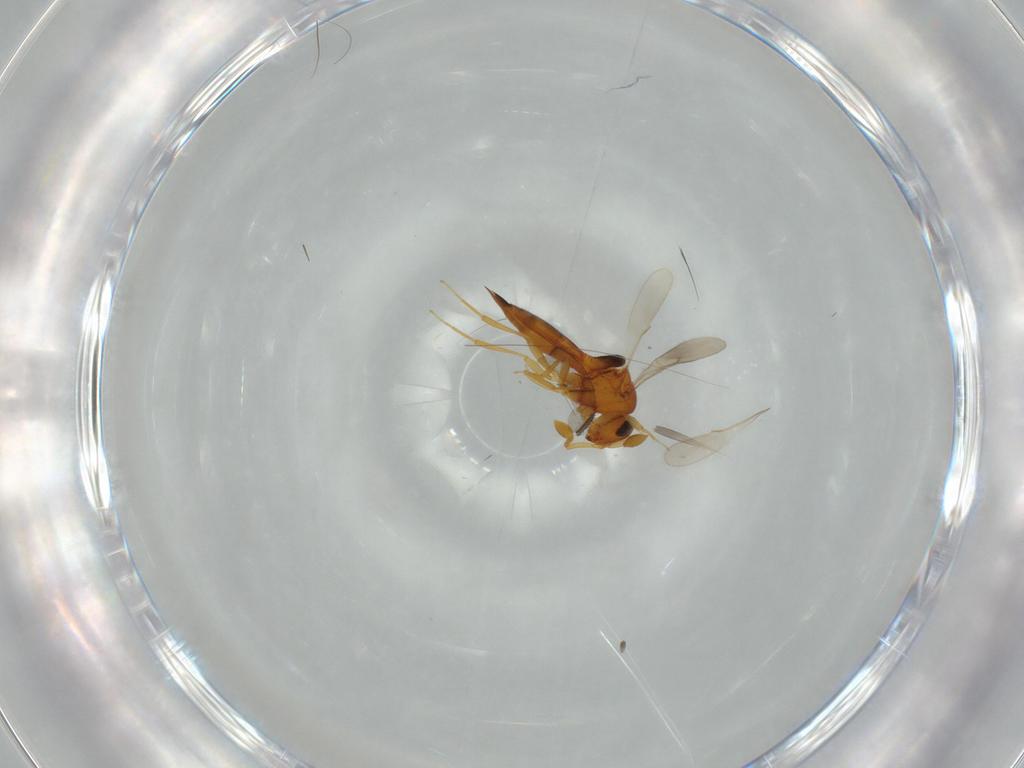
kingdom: Animalia
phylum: Arthropoda
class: Insecta
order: Hymenoptera
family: Scelionidae
